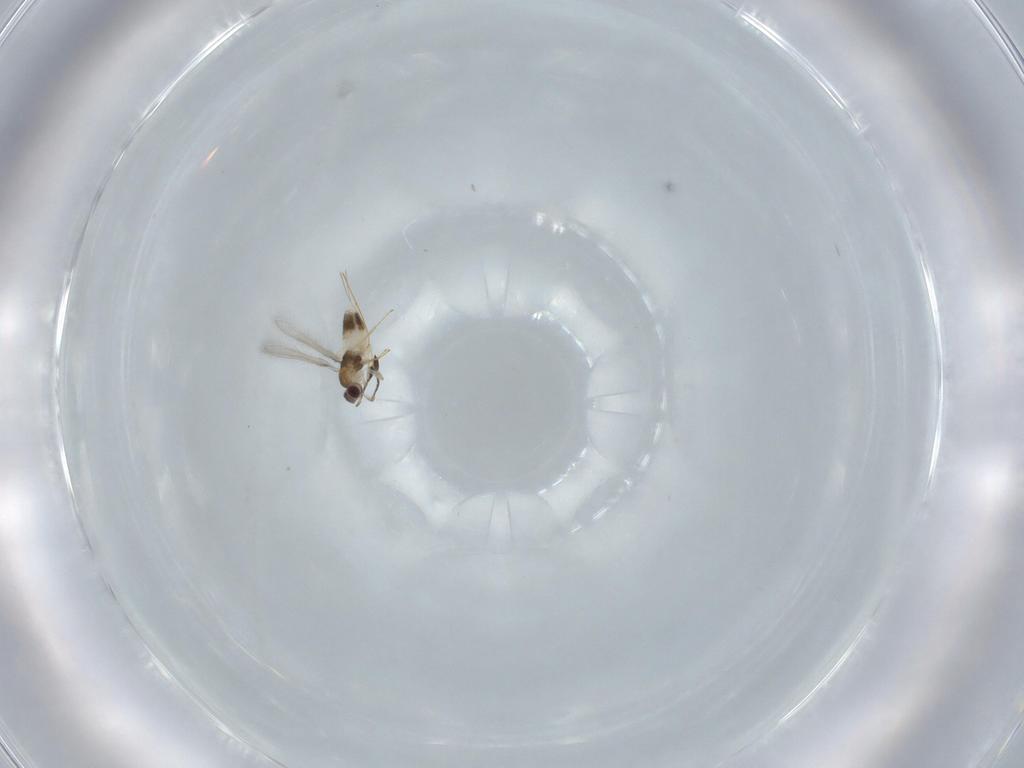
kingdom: Animalia
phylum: Arthropoda
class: Insecta
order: Hymenoptera
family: Mymaridae
